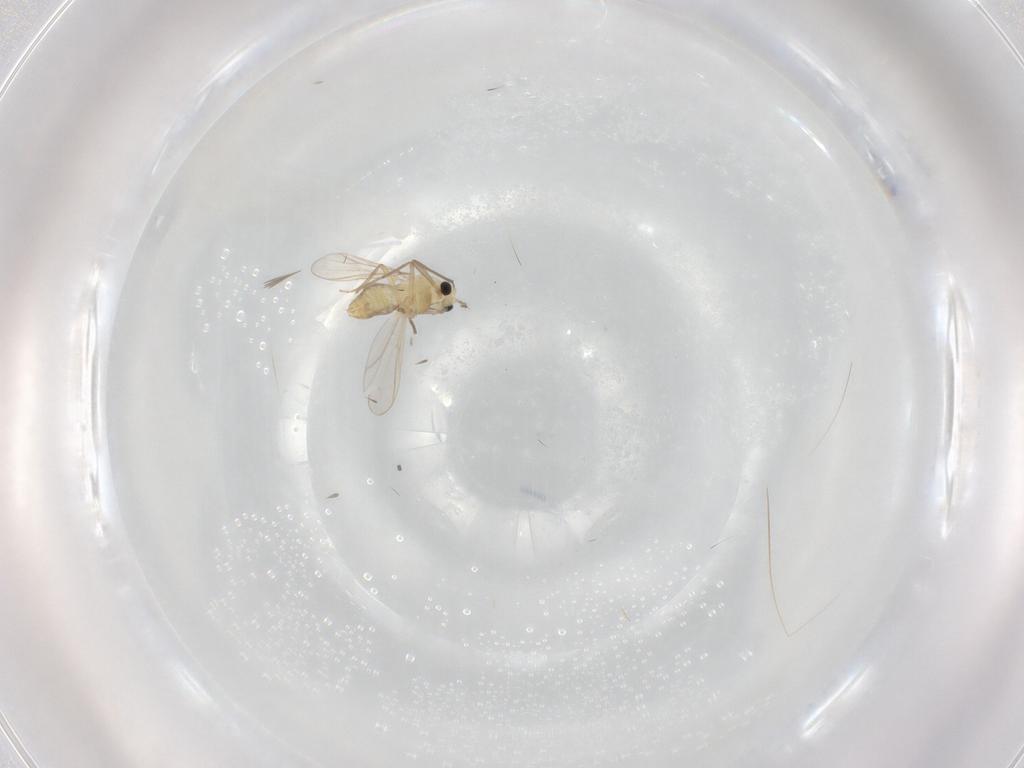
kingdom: Animalia
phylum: Arthropoda
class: Insecta
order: Diptera
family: Chironomidae
